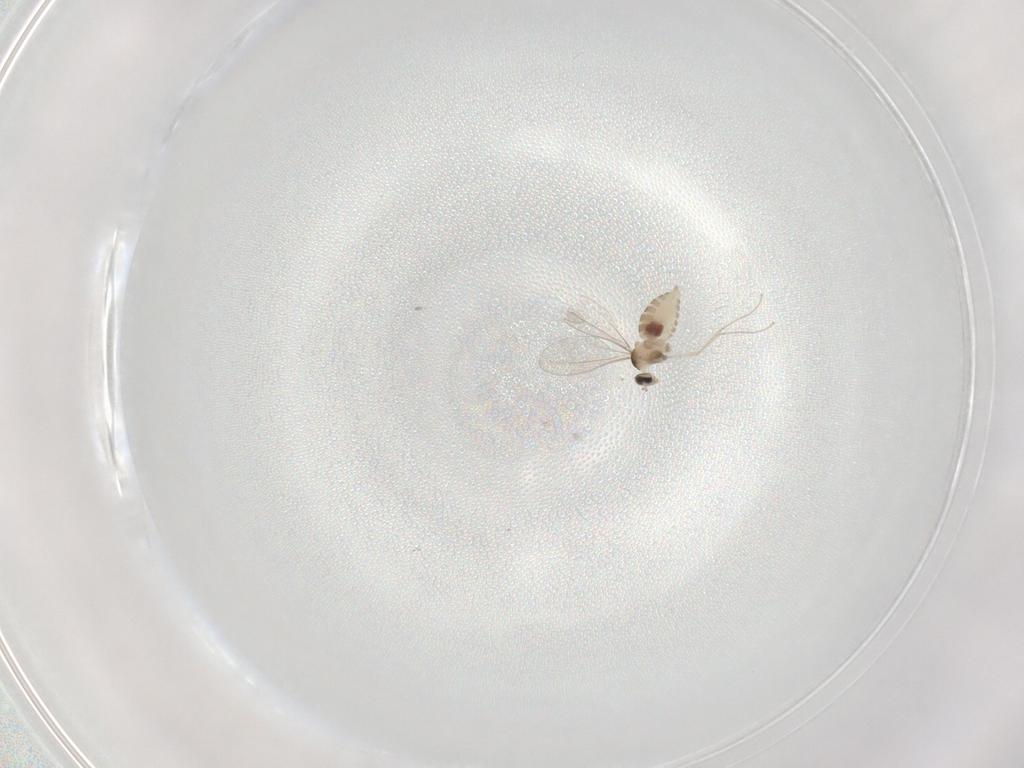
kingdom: Animalia
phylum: Arthropoda
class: Insecta
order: Diptera
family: Cecidomyiidae
